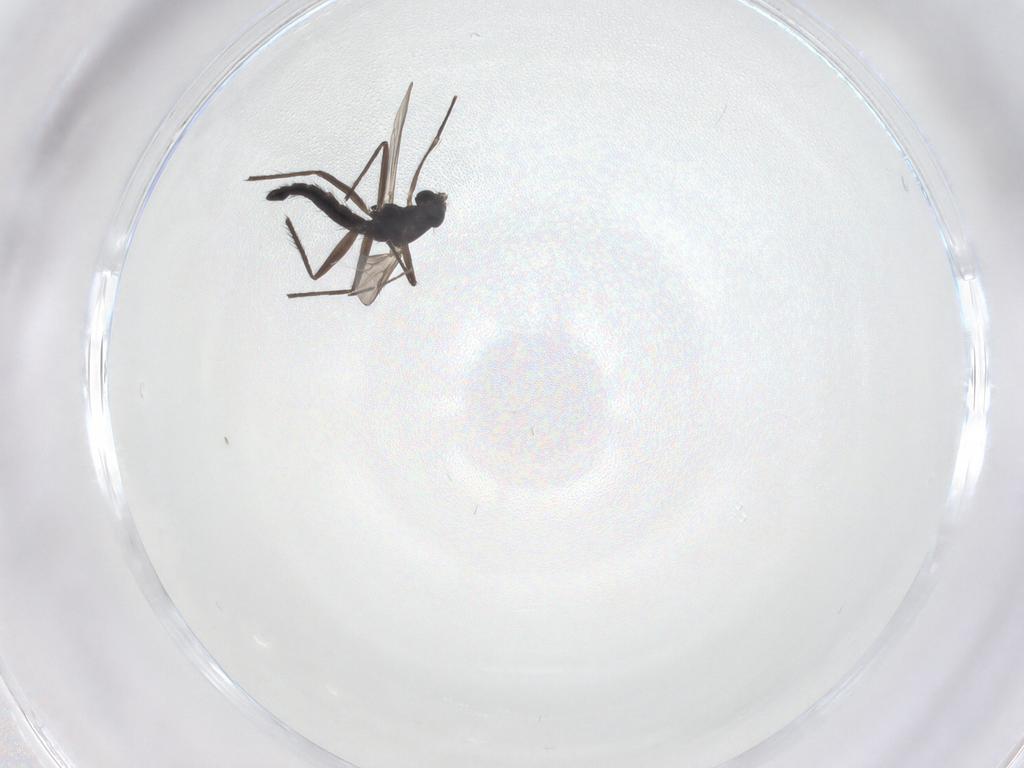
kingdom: Animalia
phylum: Arthropoda
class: Insecta
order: Diptera
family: Chironomidae
